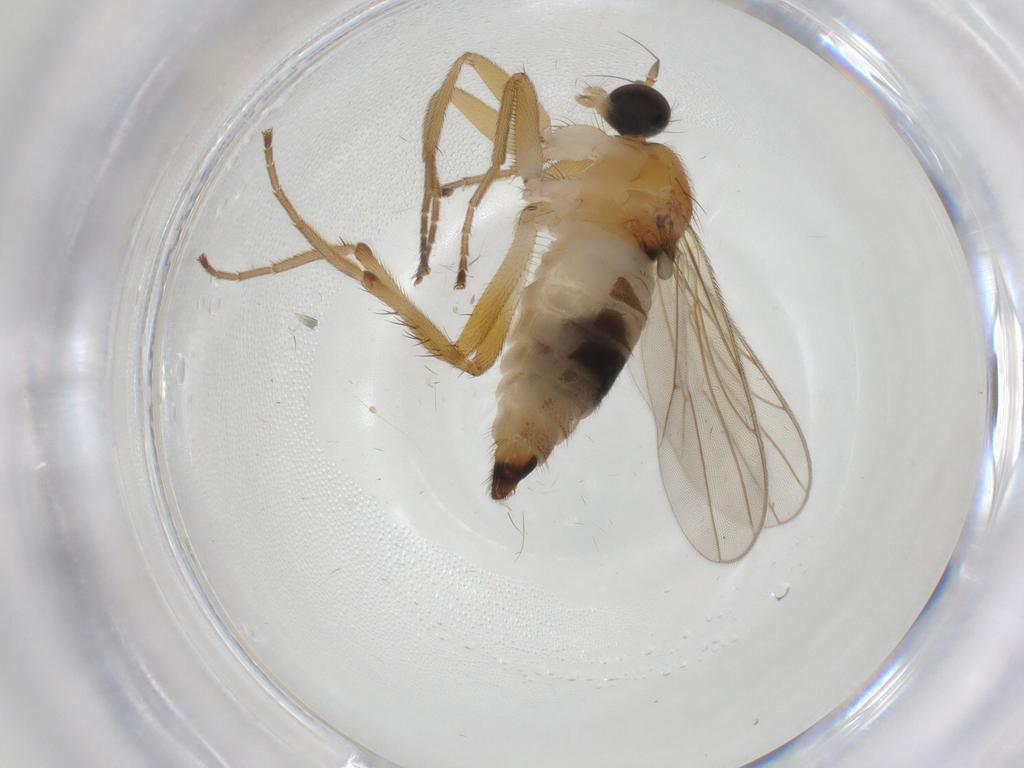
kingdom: Animalia
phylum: Arthropoda
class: Insecta
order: Diptera
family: Hybotidae
